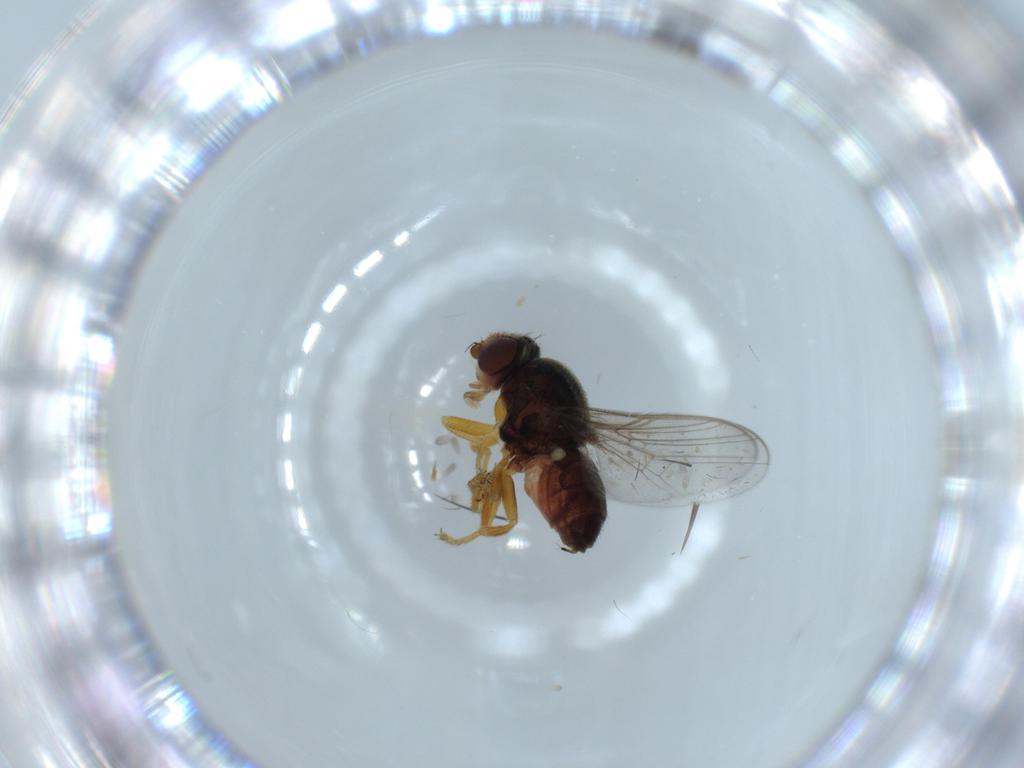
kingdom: Animalia
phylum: Arthropoda
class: Insecta
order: Diptera
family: Chloropidae
